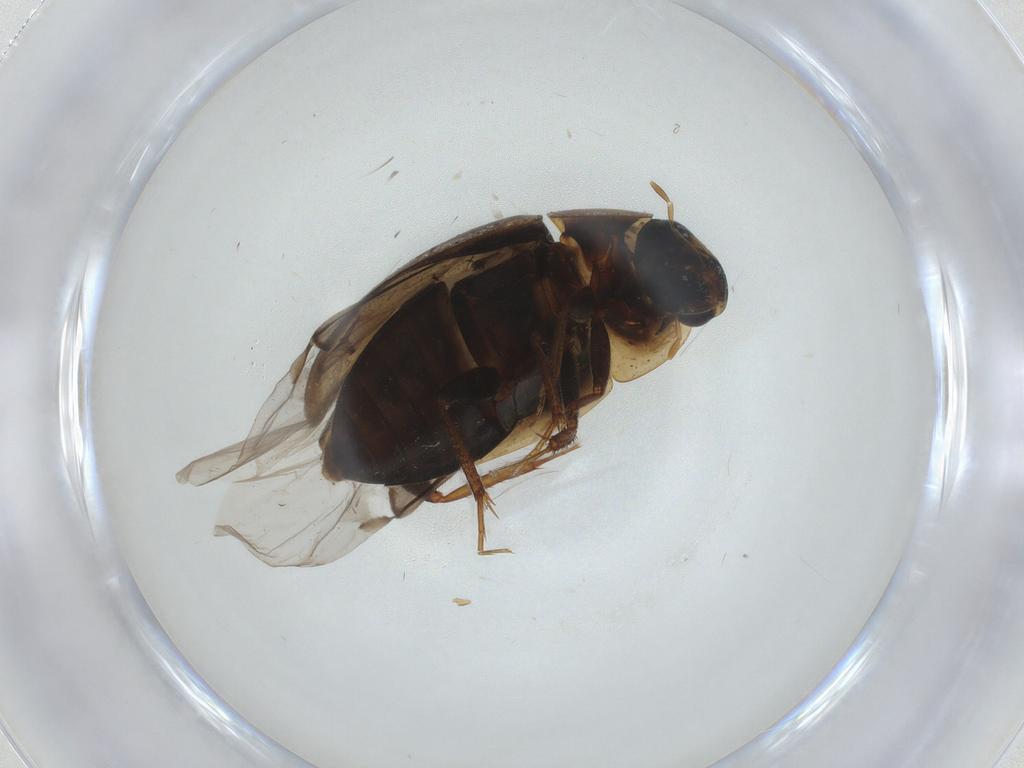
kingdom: Animalia
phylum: Arthropoda
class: Insecta
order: Coleoptera
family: Hydrophilidae
